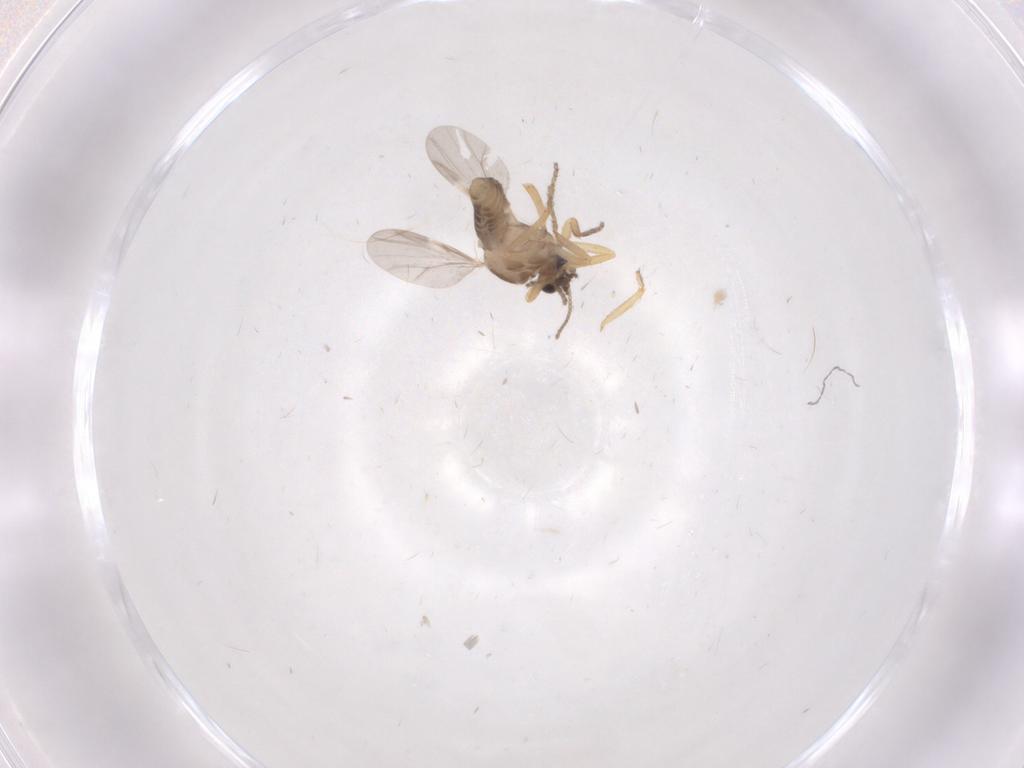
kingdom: Animalia
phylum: Arthropoda
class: Insecta
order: Diptera
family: Ceratopogonidae
